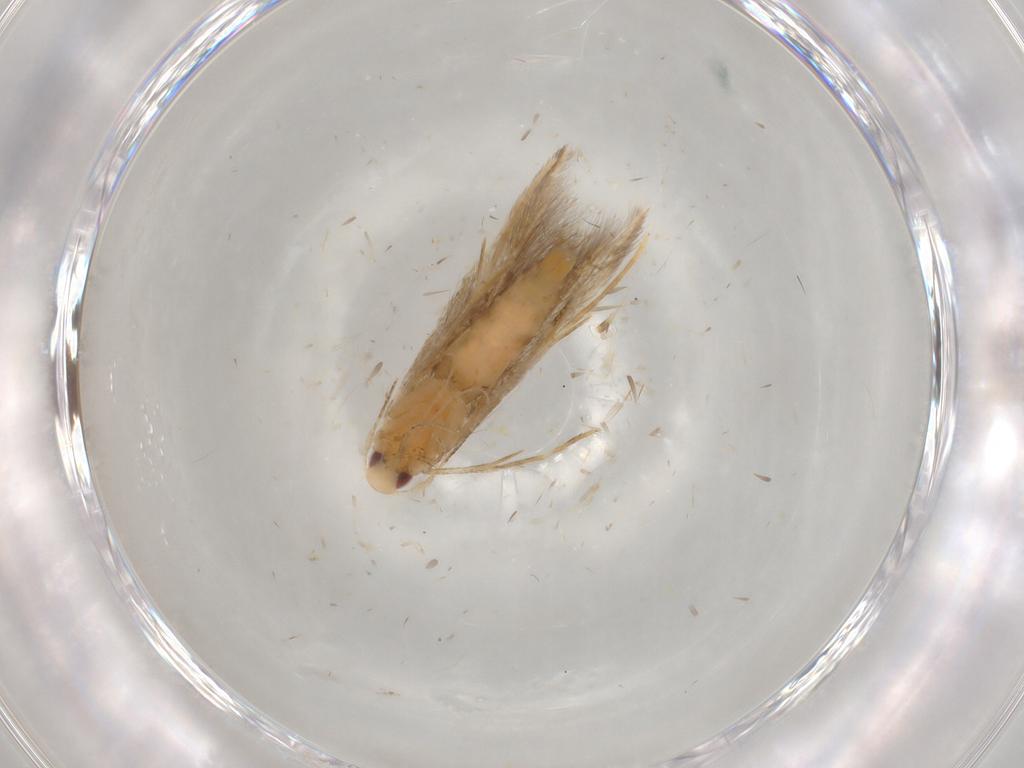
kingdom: Animalia
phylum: Arthropoda
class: Insecta
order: Lepidoptera
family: Cosmopterigidae
